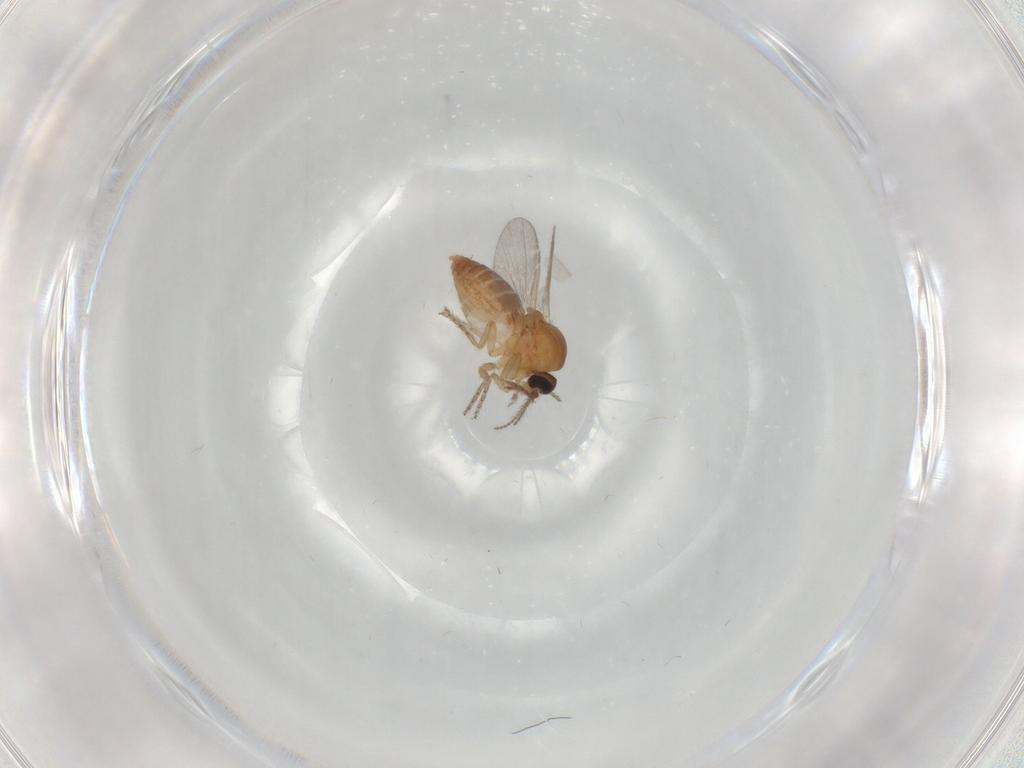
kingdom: Animalia
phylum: Arthropoda
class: Insecta
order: Diptera
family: Ceratopogonidae
